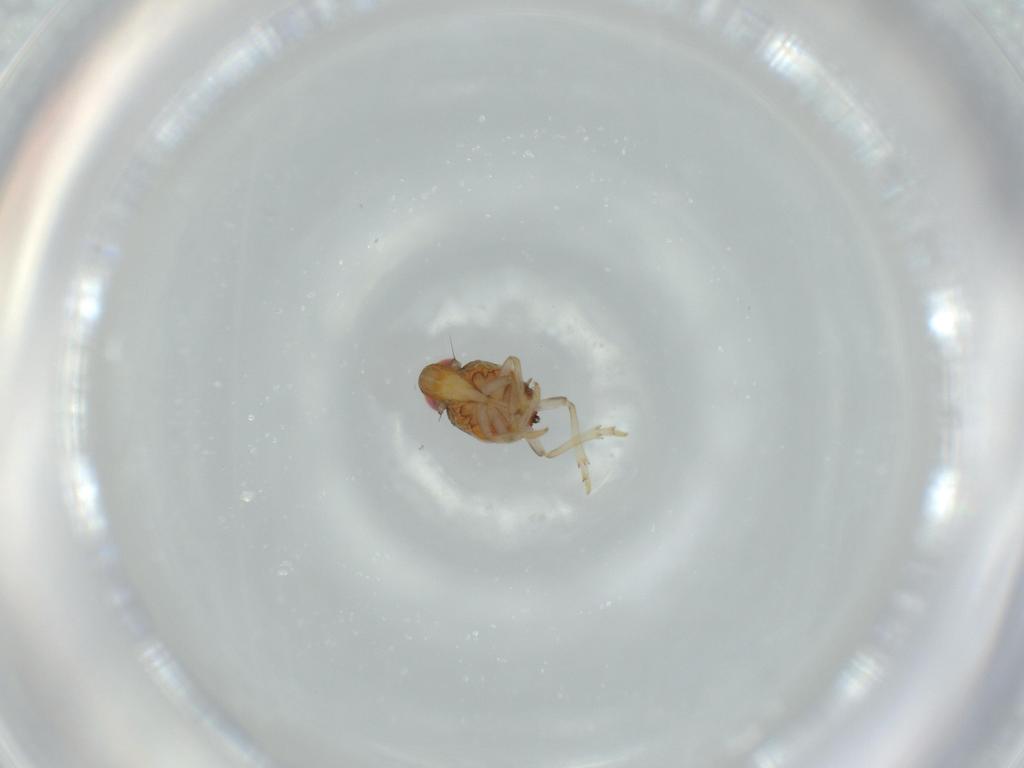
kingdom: Animalia
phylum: Arthropoda
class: Insecta
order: Hemiptera
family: Issidae
